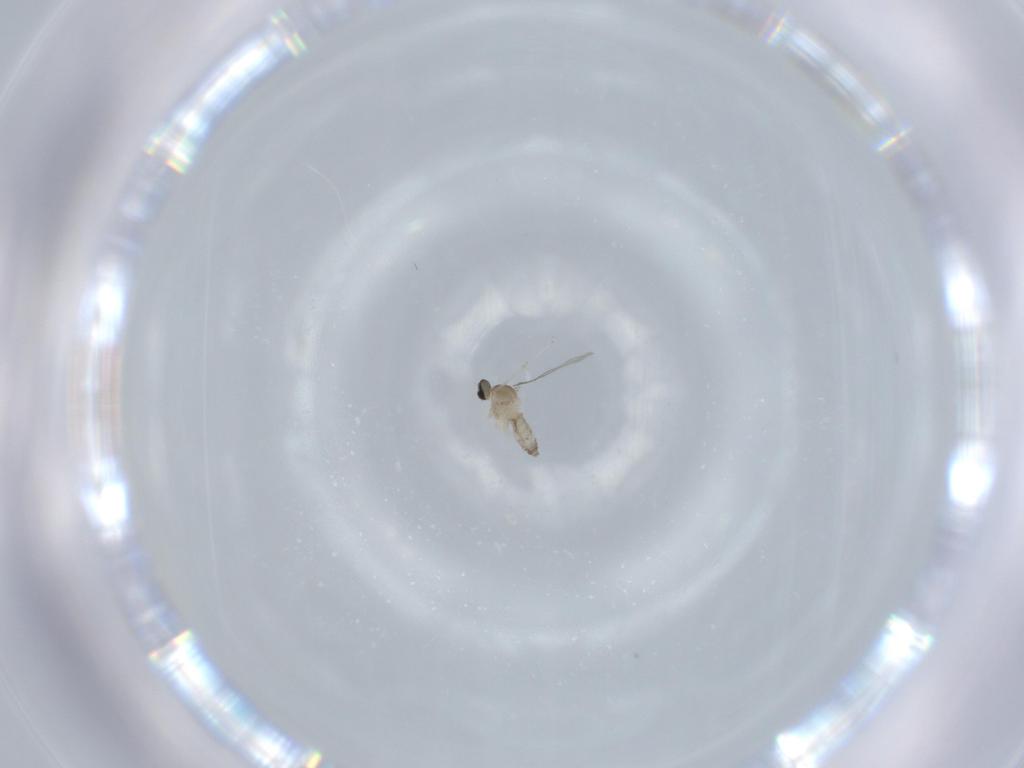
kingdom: Animalia
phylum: Arthropoda
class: Insecta
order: Diptera
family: Cecidomyiidae
